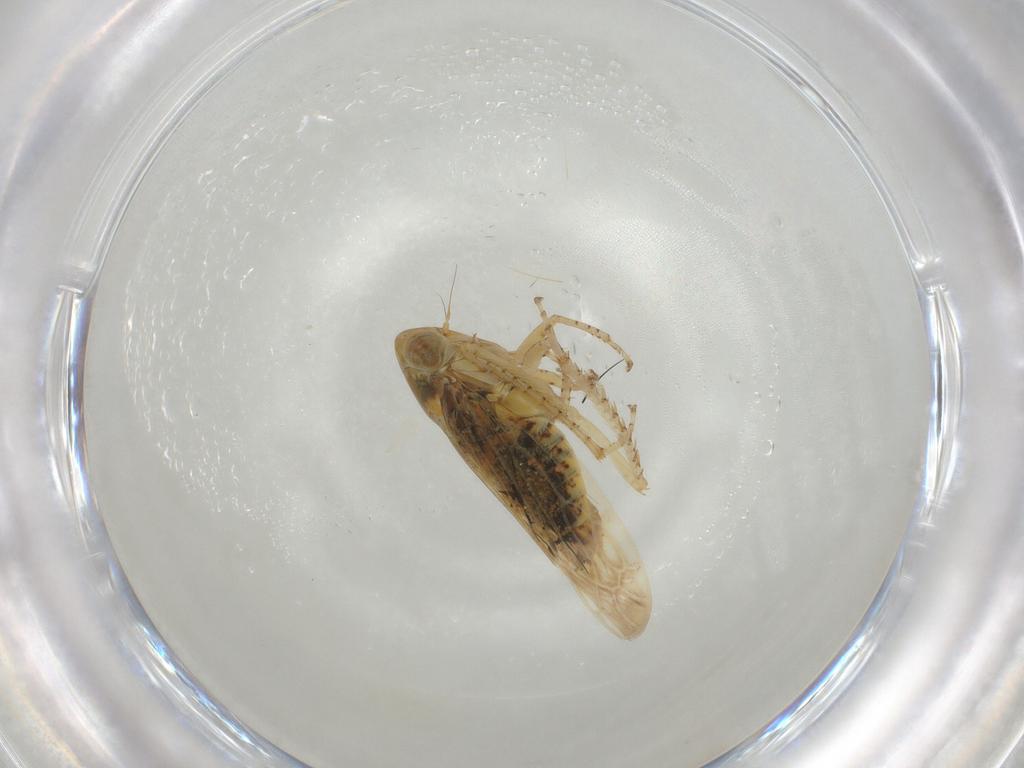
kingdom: Animalia
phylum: Arthropoda
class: Insecta
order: Hemiptera
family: Cicadellidae
